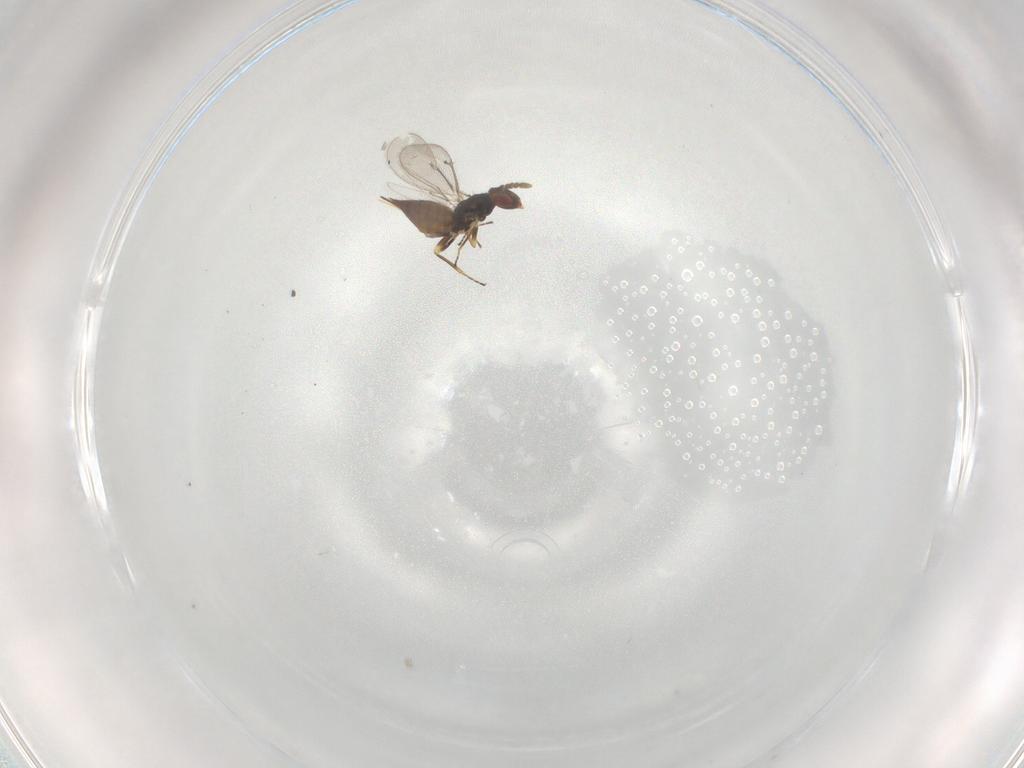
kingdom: Animalia
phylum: Arthropoda
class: Insecta
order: Hymenoptera
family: Eulophidae
